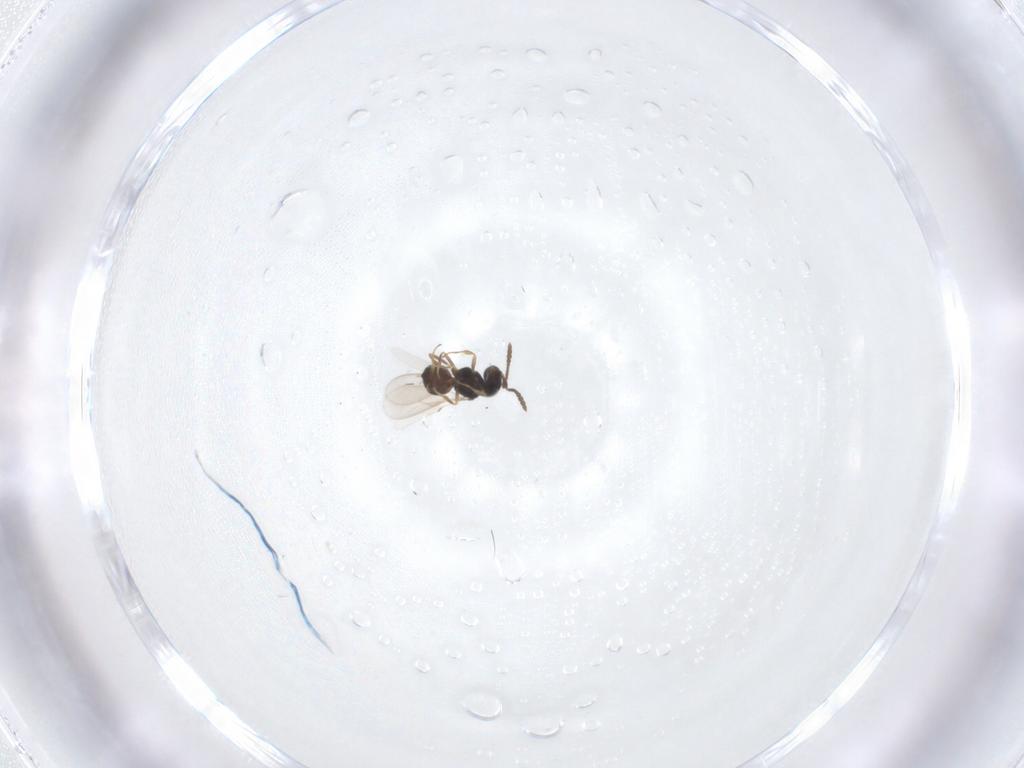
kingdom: Animalia
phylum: Arthropoda
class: Insecta
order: Hymenoptera
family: Scelionidae
